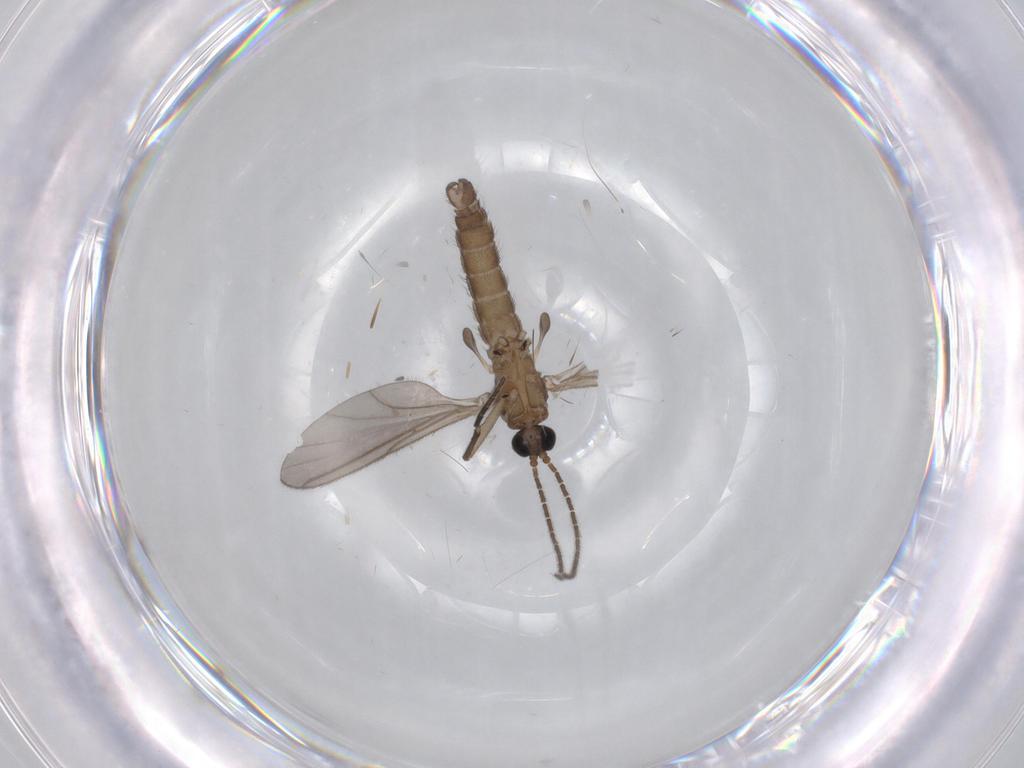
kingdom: Animalia
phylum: Arthropoda
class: Insecta
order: Diptera
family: Sciaridae
